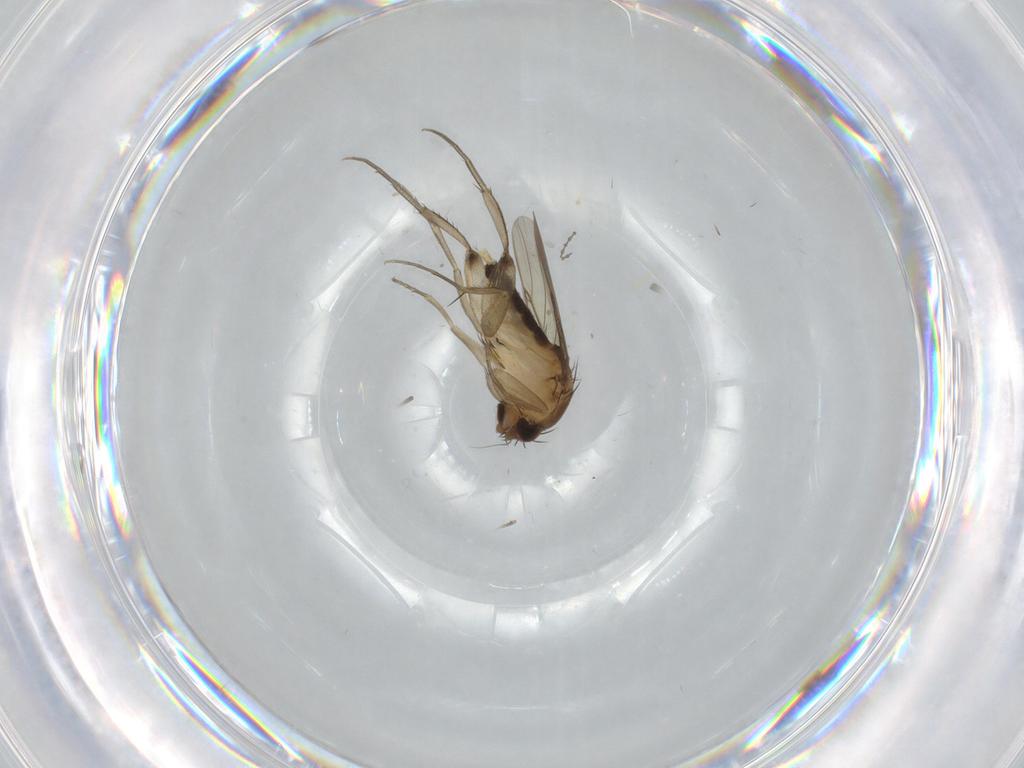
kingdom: Animalia
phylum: Arthropoda
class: Insecta
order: Diptera
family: Phoridae
